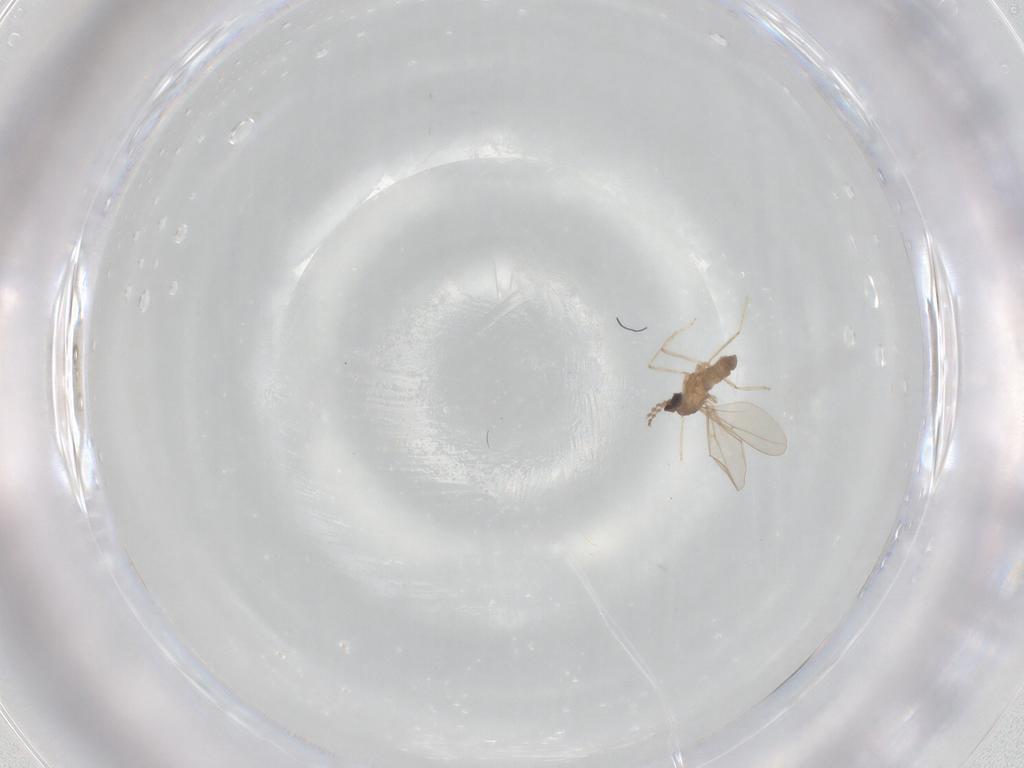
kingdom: Animalia
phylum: Arthropoda
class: Insecta
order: Diptera
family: Cecidomyiidae
